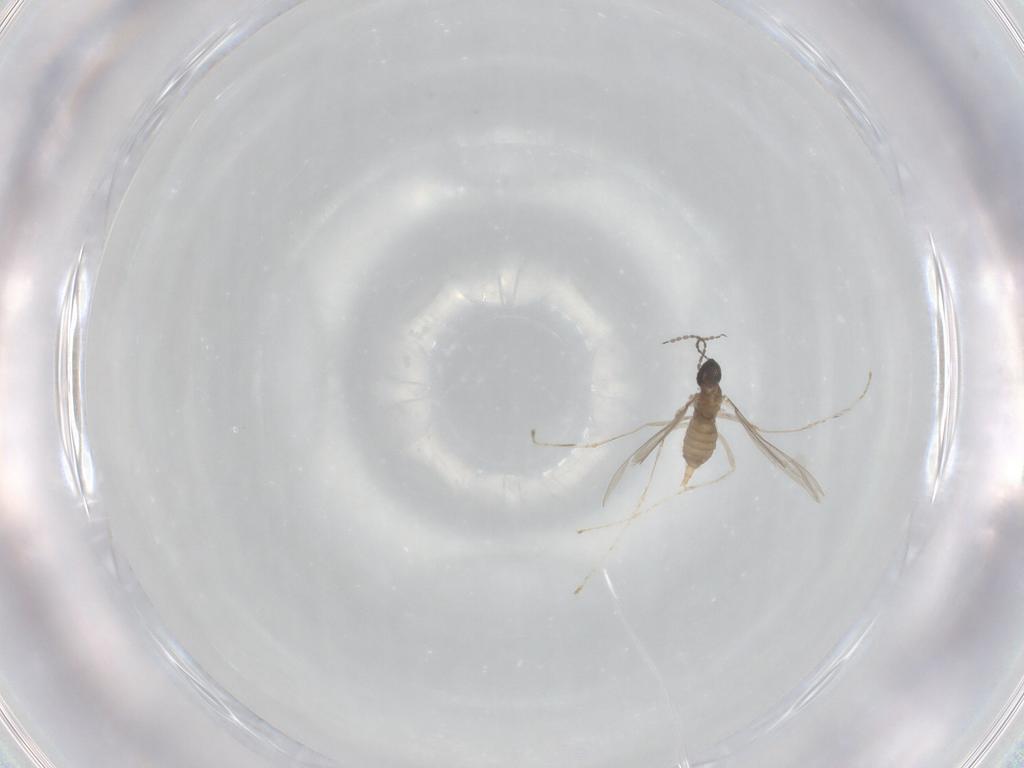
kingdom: Animalia
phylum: Arthropoda
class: Insecta
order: Diptera
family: Cecidomyiidae
